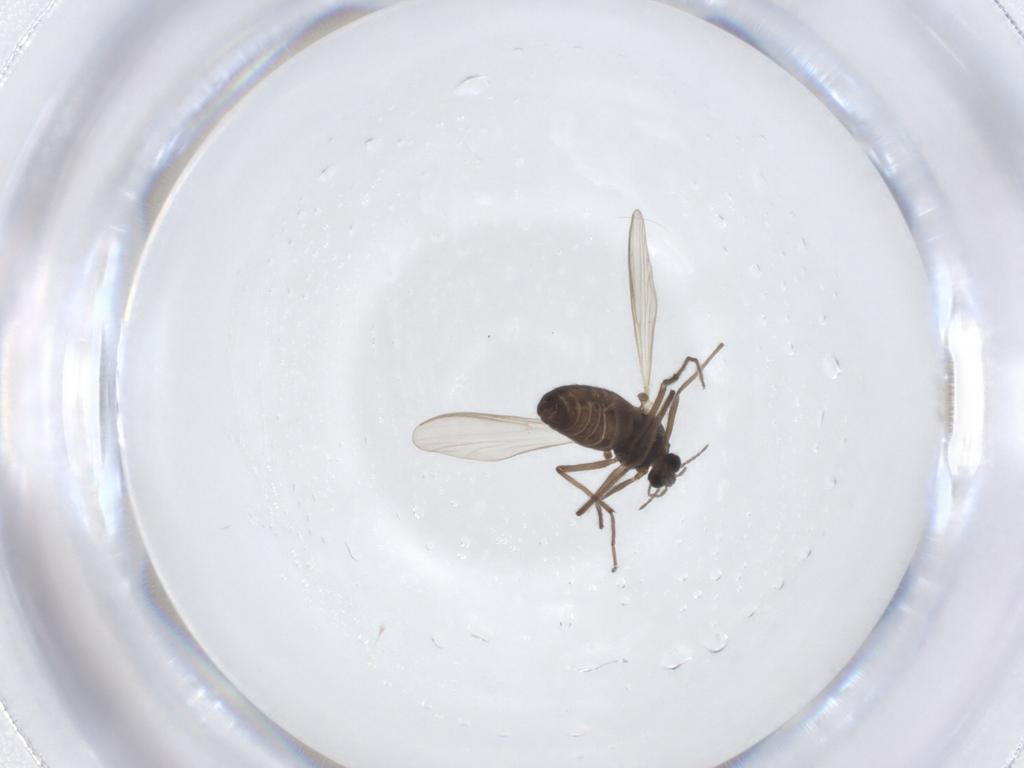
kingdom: Animalia
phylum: Arthropoda
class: Insecta
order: Diptera
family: Chironomidae
